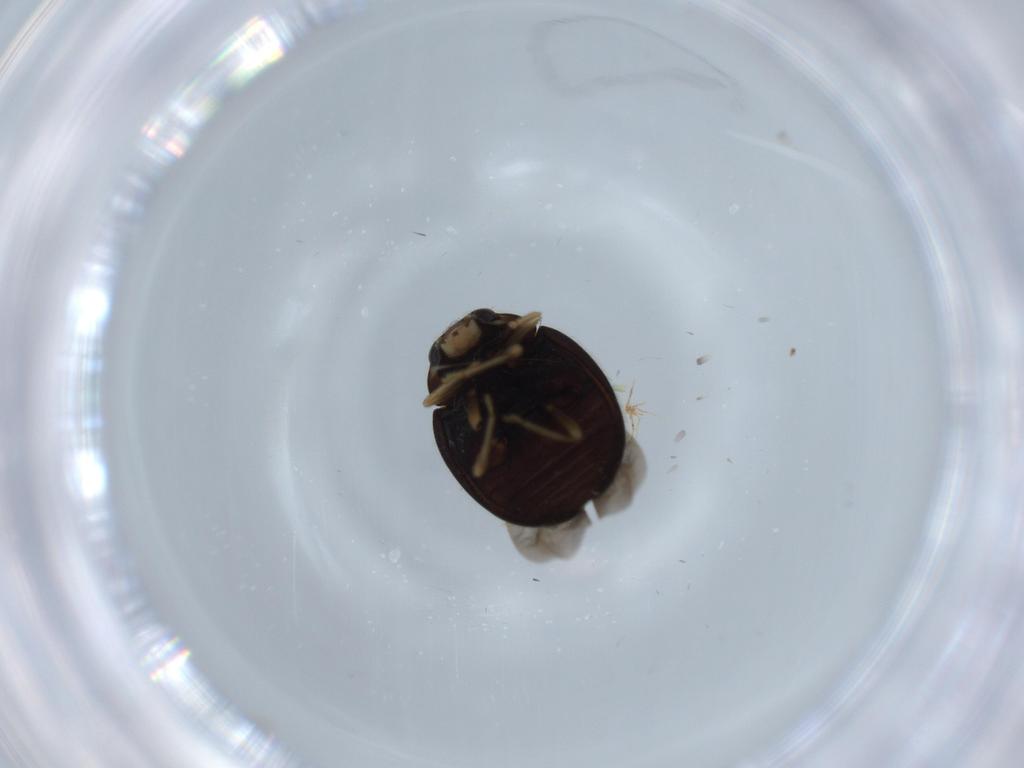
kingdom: Animalia
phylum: Arthropoda
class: Insecta
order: Coleoptera
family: Coccinellidae
